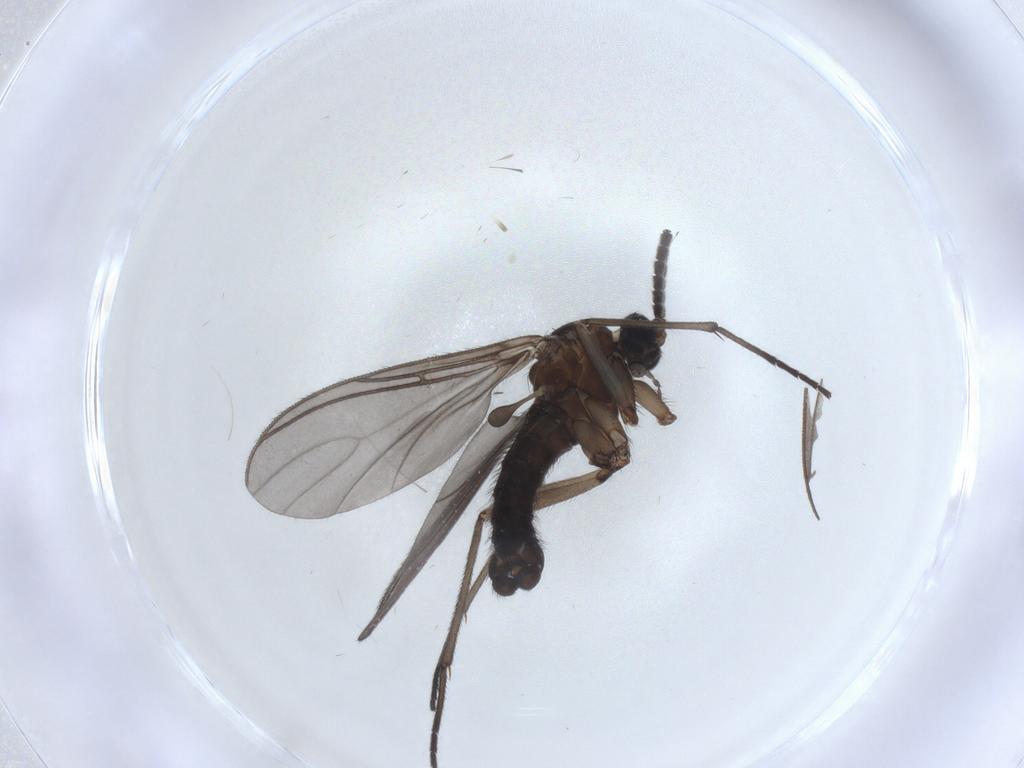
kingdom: Animalia
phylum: Arthropoda
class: Insecta
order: Diptera
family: Sciaridae
